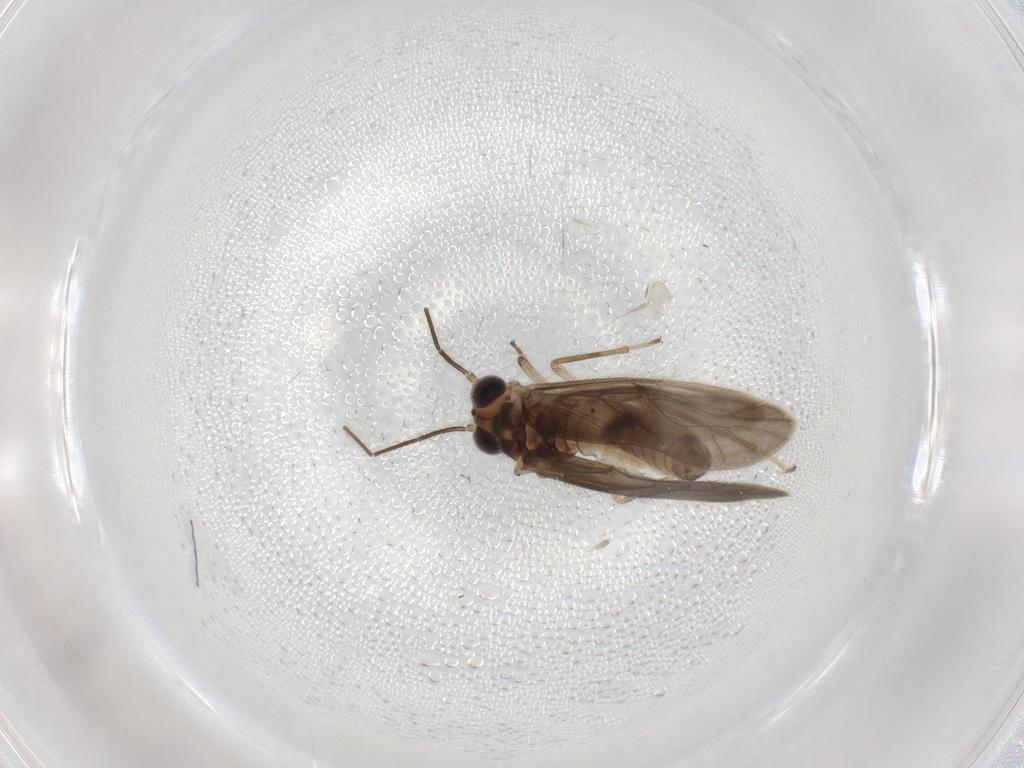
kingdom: Animalia
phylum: Arthropoda
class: Insecta
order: Psocodea
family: Caeciliusidae
